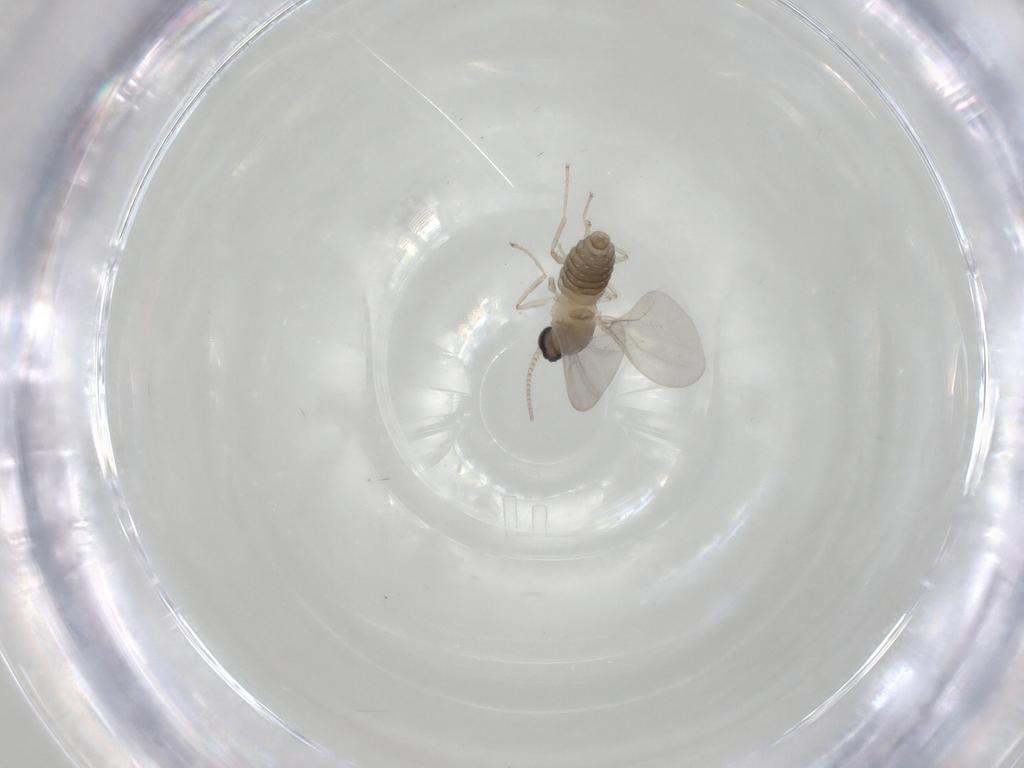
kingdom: Animalia
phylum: Arthropoda
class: Insecta
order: Diptera
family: Cecidomyiidae
